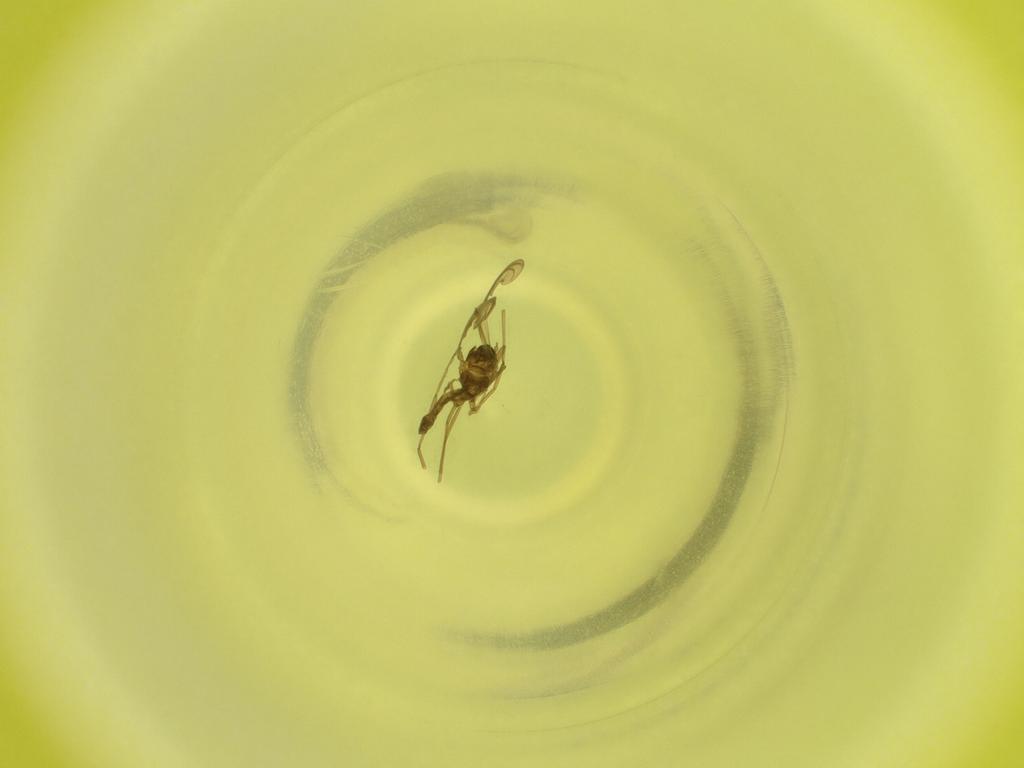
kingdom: Animalia
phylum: Arthropoda
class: Insecta
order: Diptera
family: Cecidomyiidae
